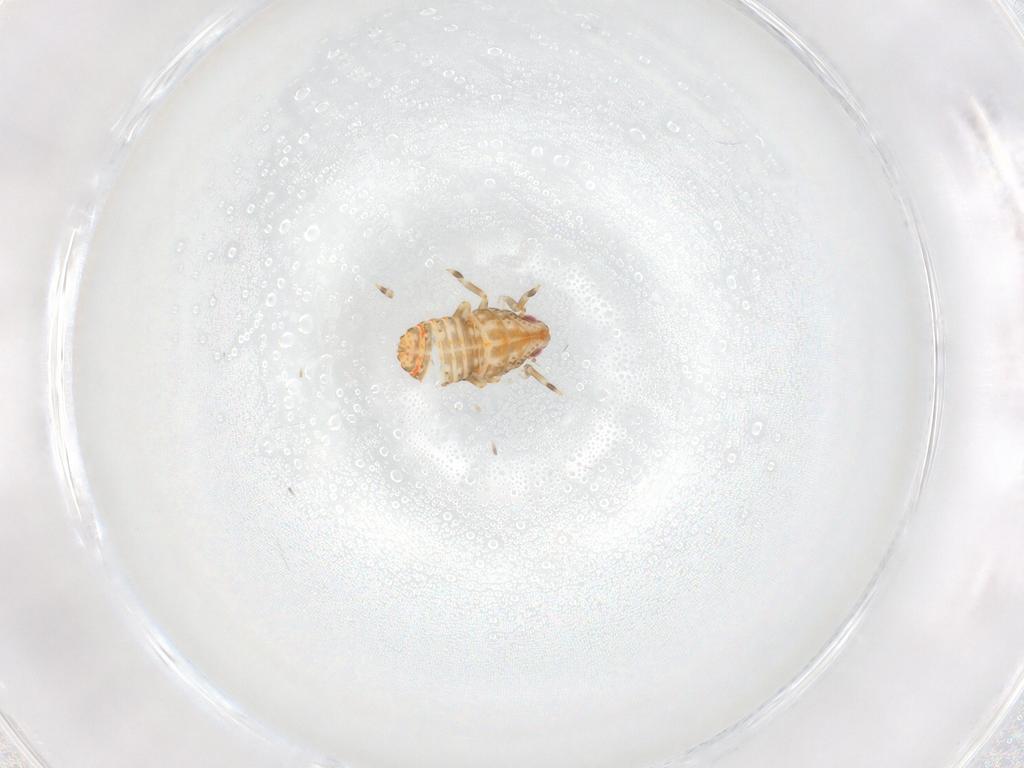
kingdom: Animalia
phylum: Arthropoda
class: Insecta
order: Hemiptera
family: Flatidae
